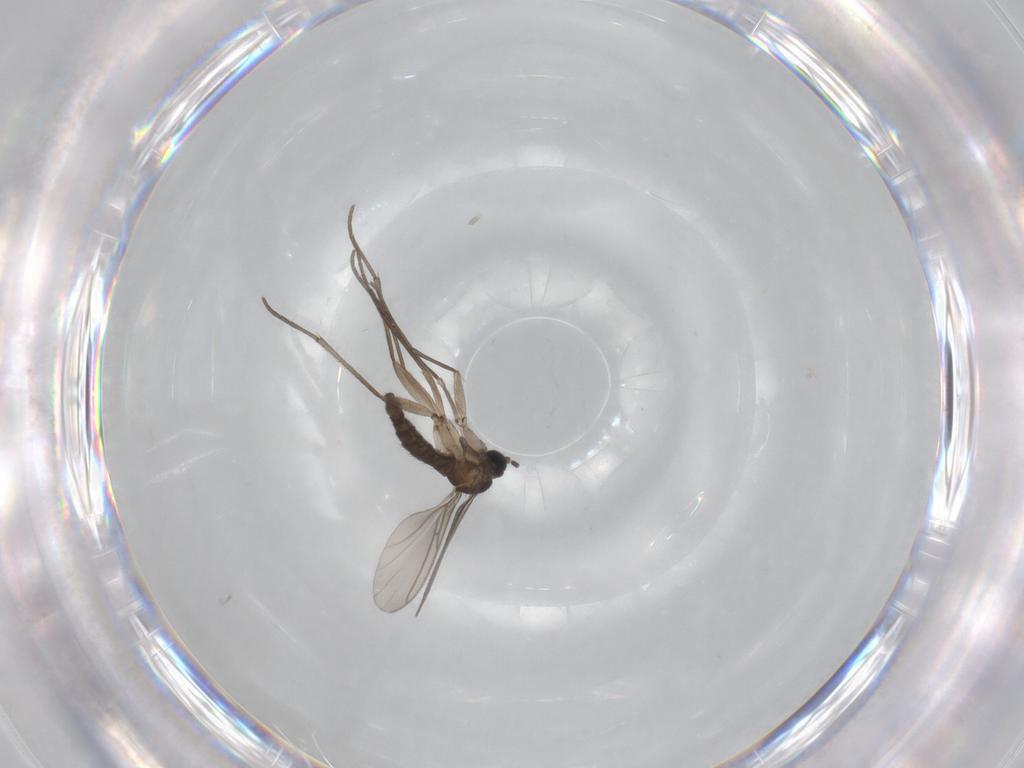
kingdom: Animalia
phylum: Arthropoda
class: Insecta
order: Diptera
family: Sciaridae
